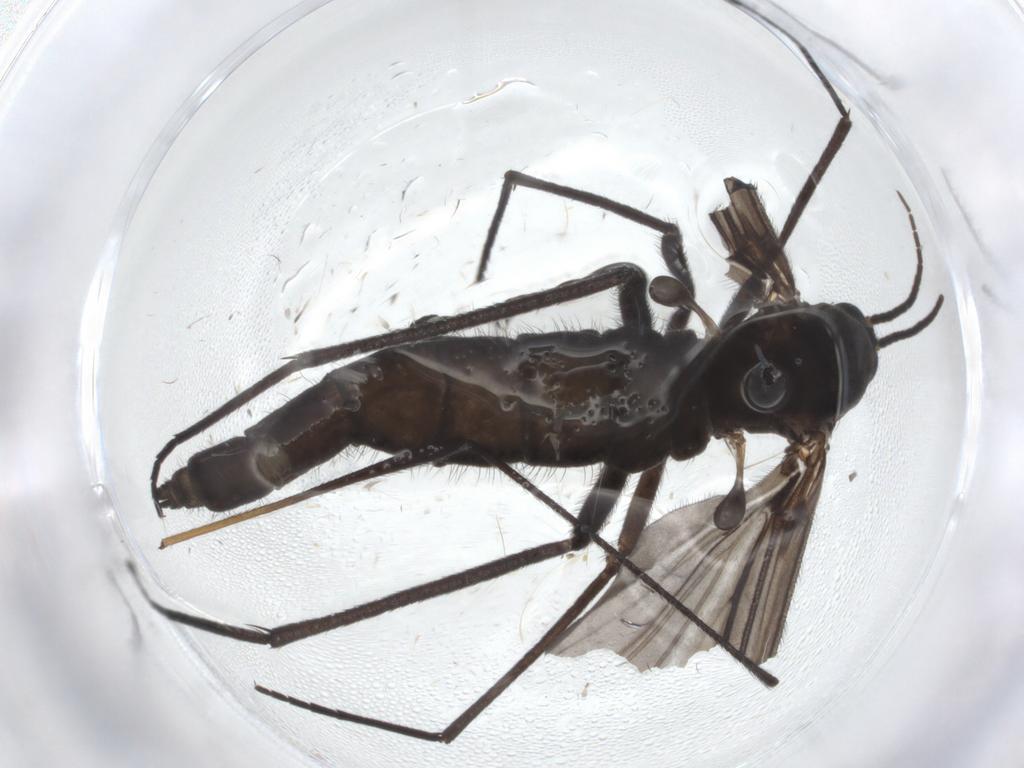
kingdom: Animalia
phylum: Arthropoda
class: Insecta
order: Diptera
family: Sciaridae
